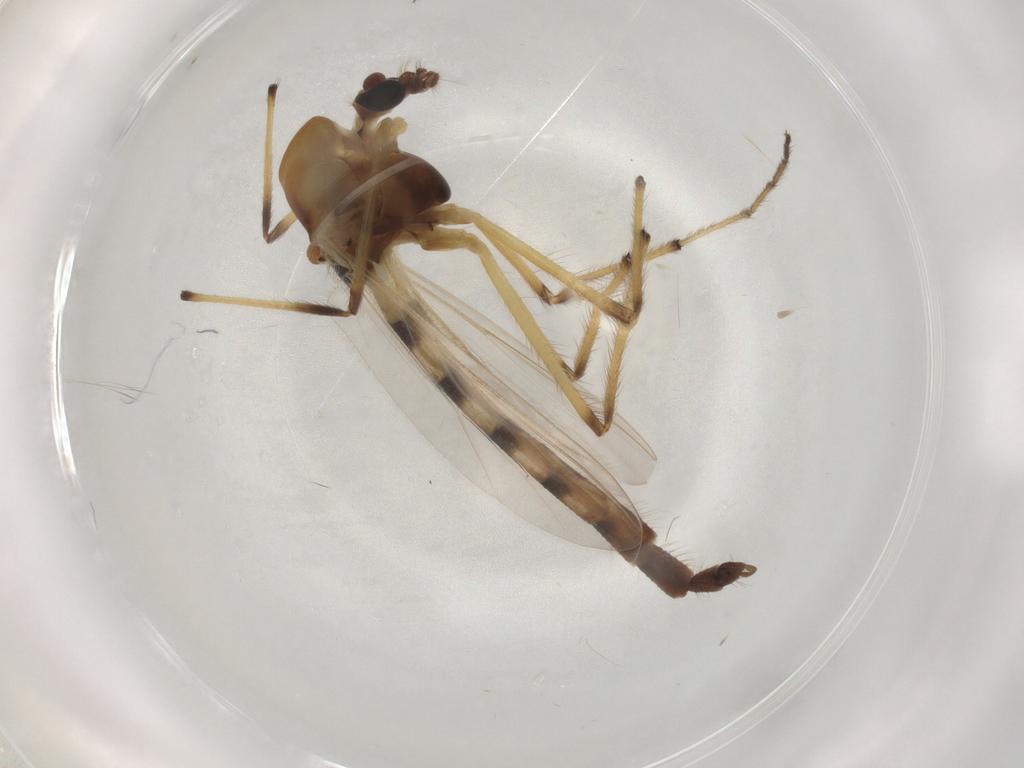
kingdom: Animalia
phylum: Arthropoda
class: Insecta
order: Diptera
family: Chironomidae
